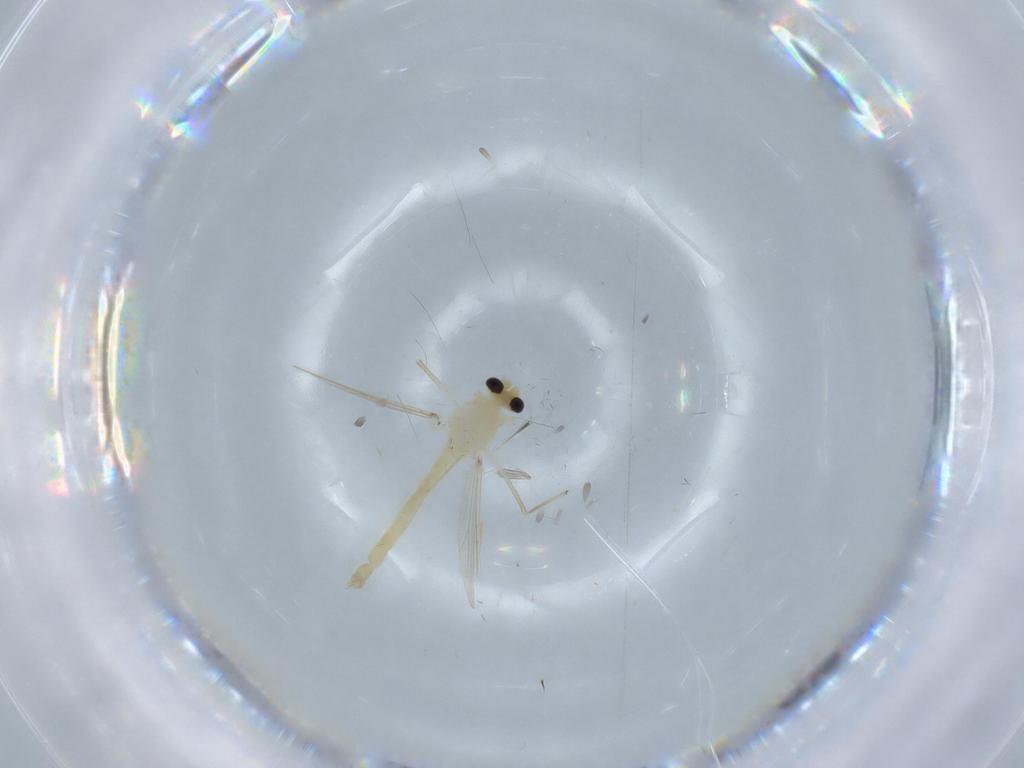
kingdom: Animalia
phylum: Arthropoda
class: Insecta
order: Diptera
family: Chironomidae
